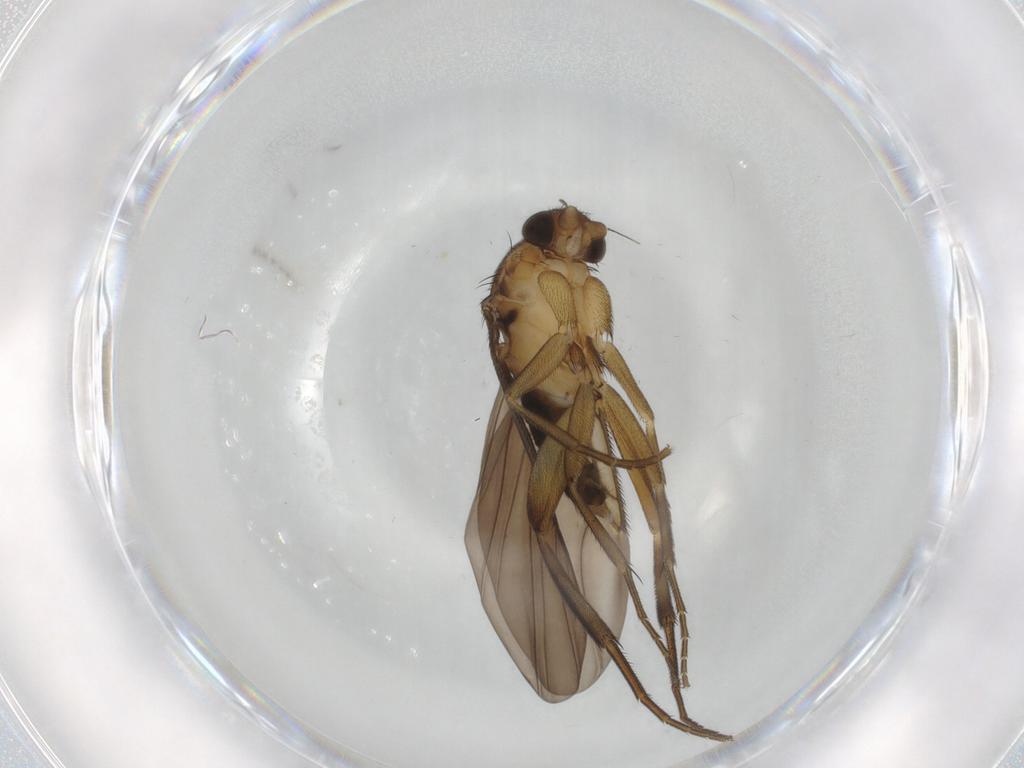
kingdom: Animalia
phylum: Arthropoda
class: Insecta
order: Diptera
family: Phoridae
